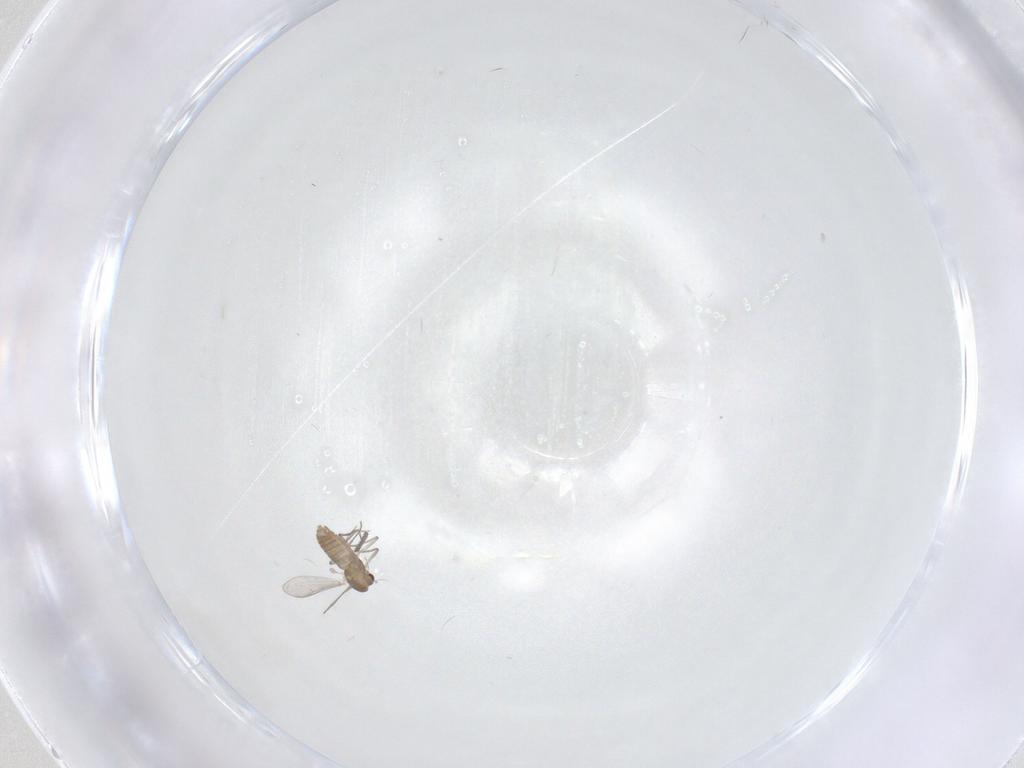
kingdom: Animalia
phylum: Arthropoda
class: Insecta
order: Diptera
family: Chironomidae
